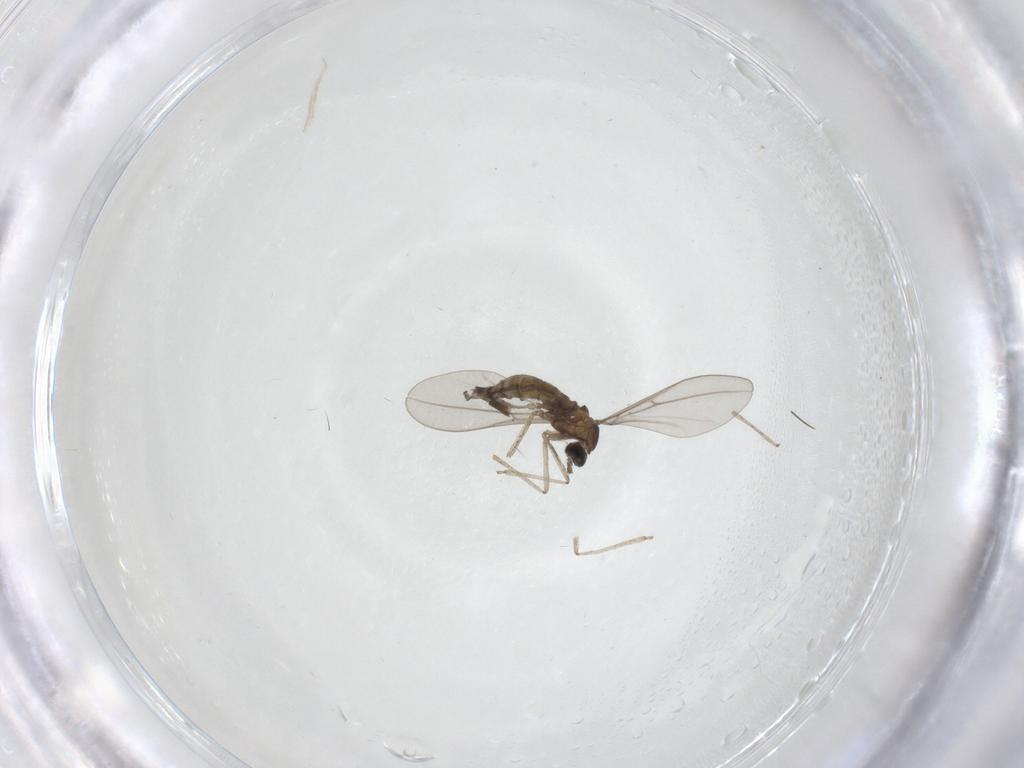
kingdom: Animalia
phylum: Arthropoda
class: Insecta
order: Diptera
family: Cecidomyiidae
